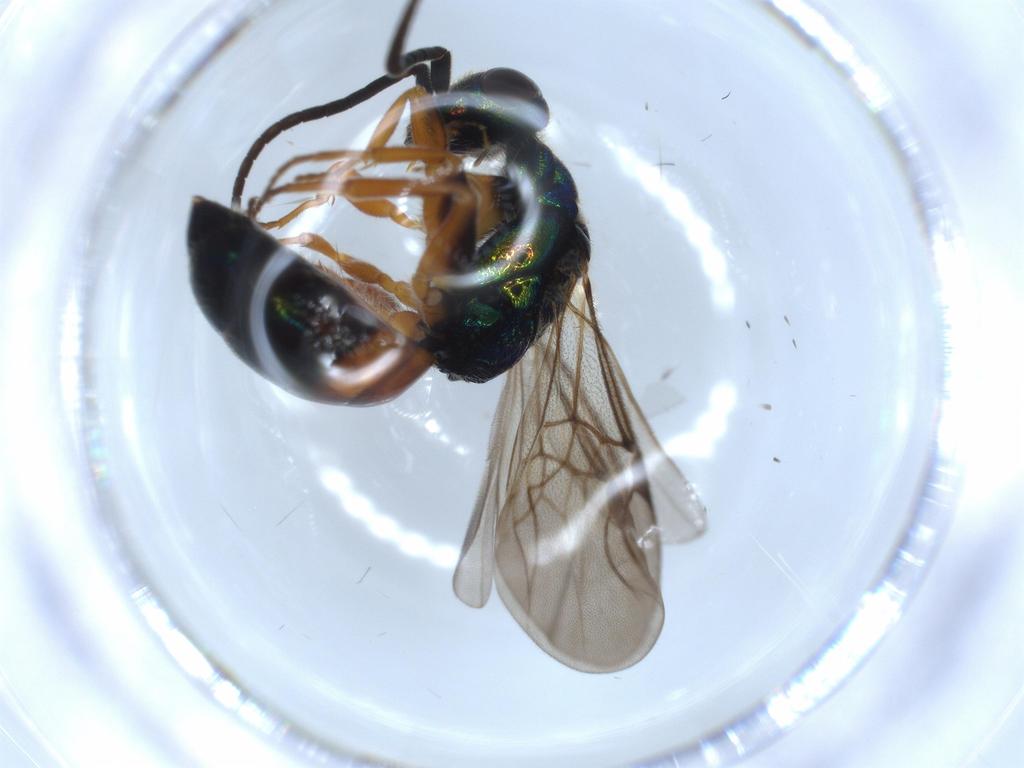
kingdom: Animalia
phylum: Arthropoda
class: Insecta
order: Hymenoptera
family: Chrysididae
